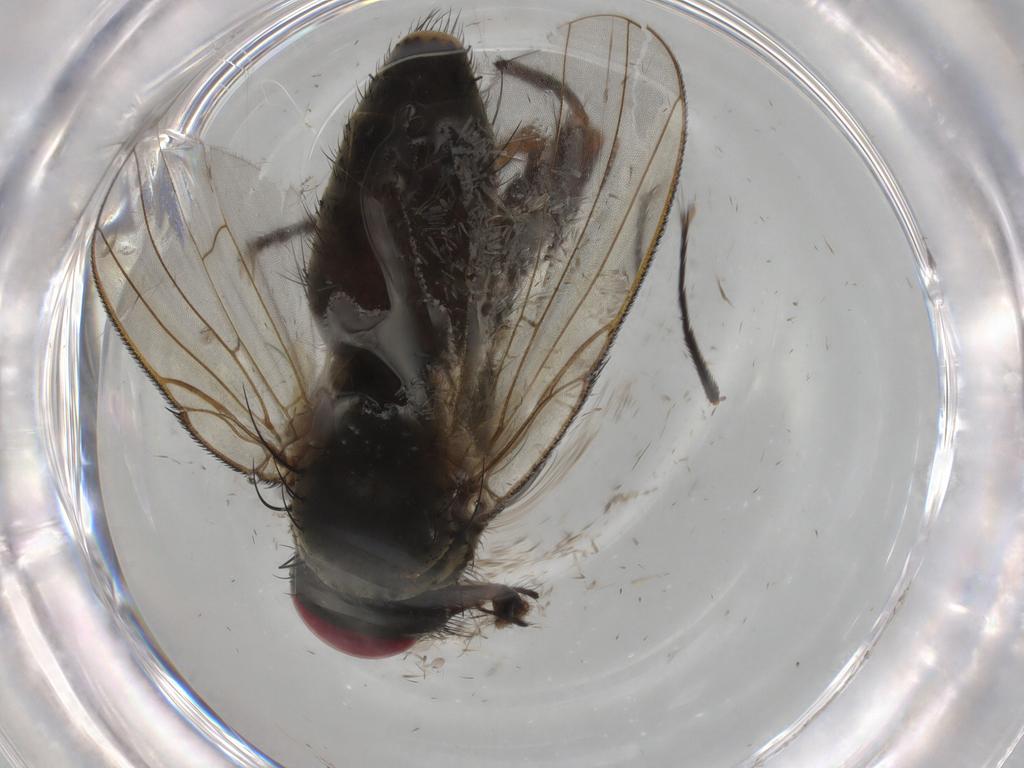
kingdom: Animalia
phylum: Arthropoda
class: Insecta
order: Diptera
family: Muscidae
